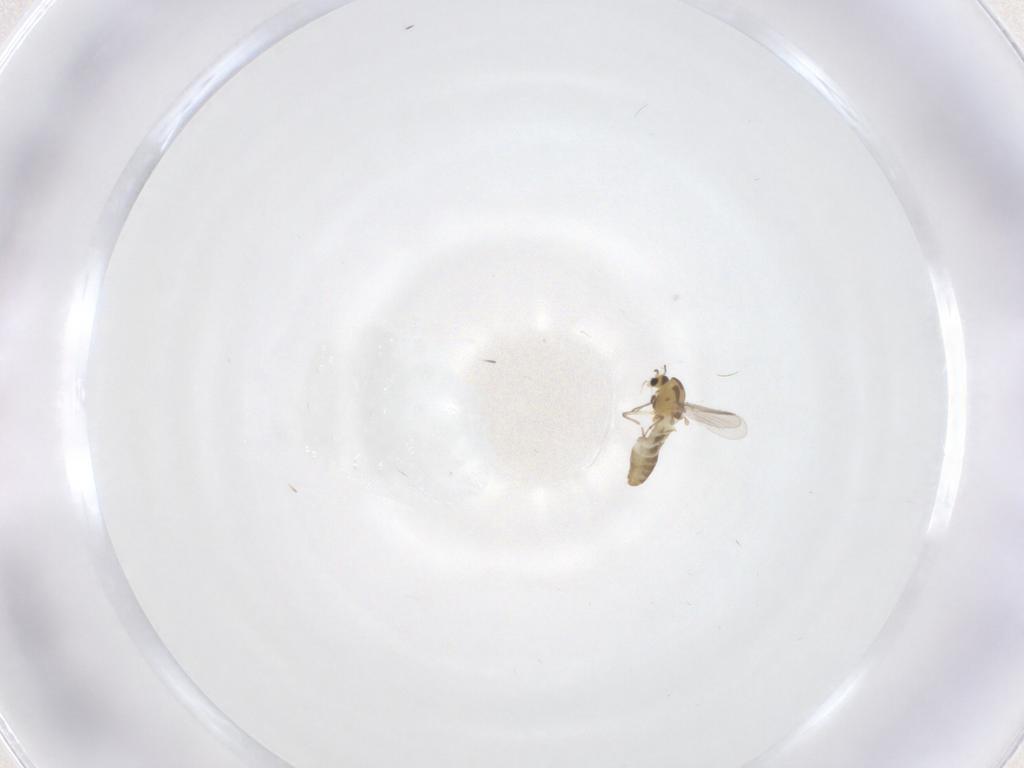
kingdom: Animalia
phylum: Arthropoda
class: Insecta
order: Diptera
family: Chironomidae
